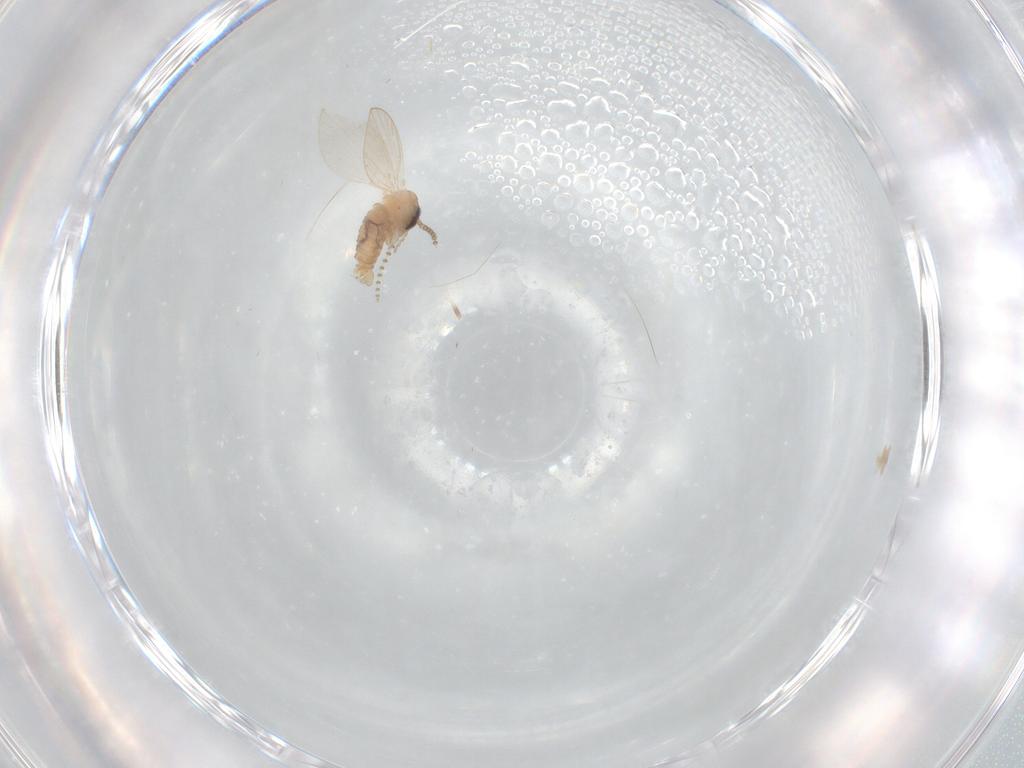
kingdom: Animalia
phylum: Arthropoda
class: Insecta
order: Diptera
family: Psychodidae
